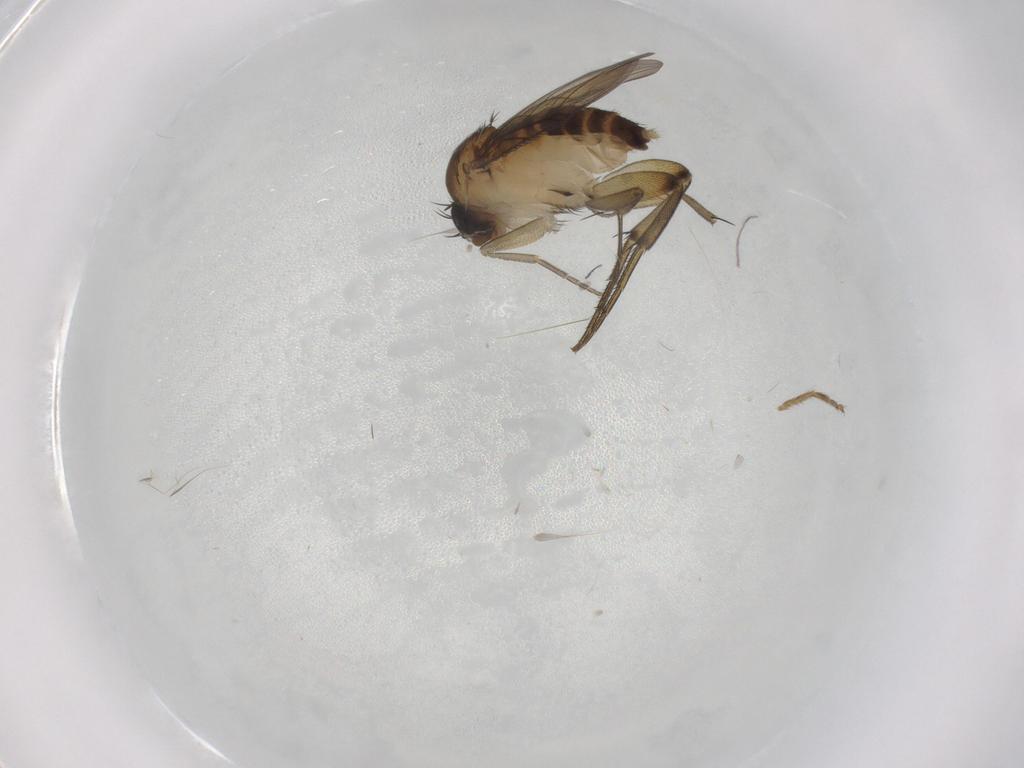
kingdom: Animalia
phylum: Arthropoda
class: Insecta
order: Diptera
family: Phoridae
